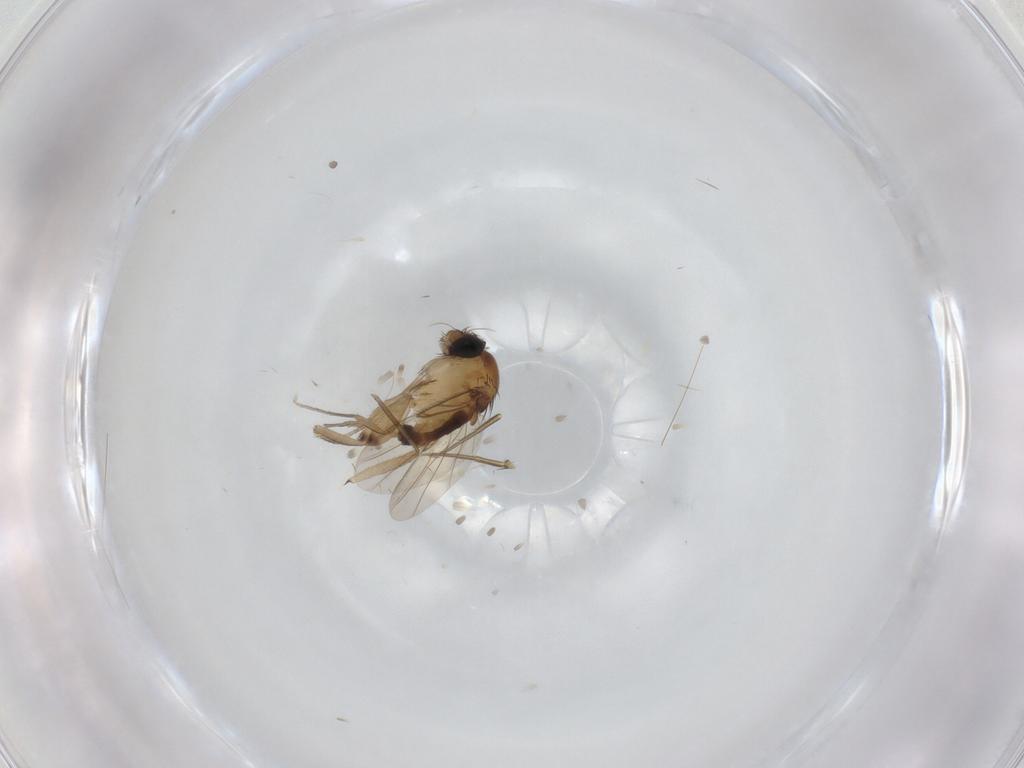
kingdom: Animalia
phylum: Arthropoda
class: Insecta
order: Diptera
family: Phoridae
